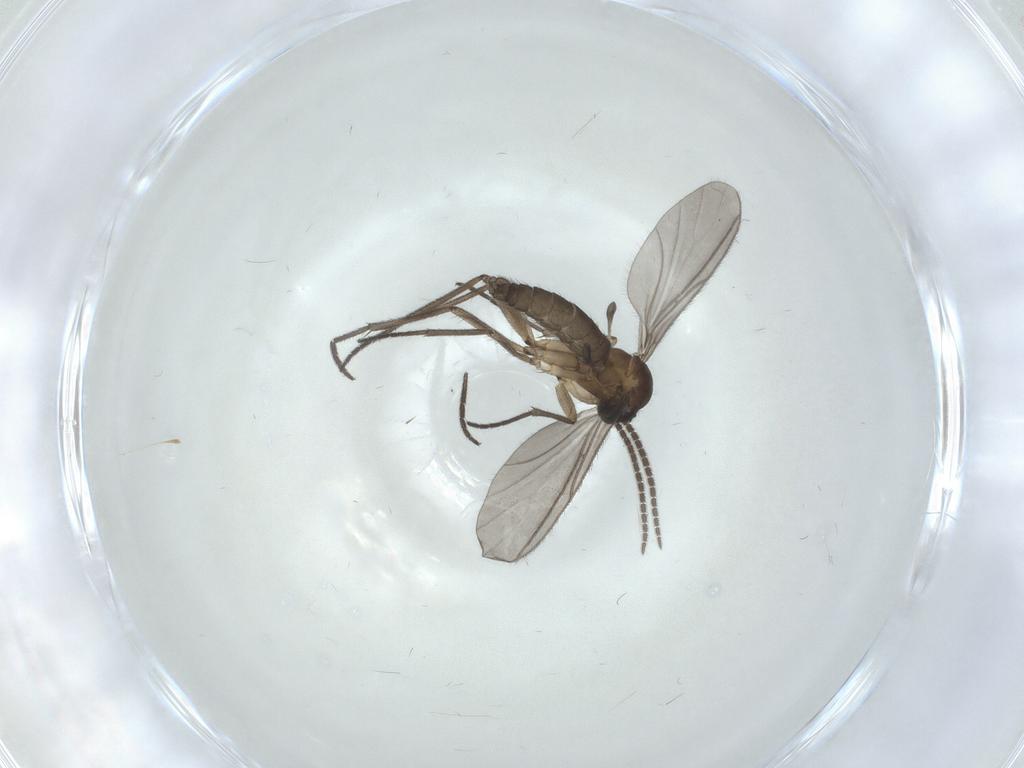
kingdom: Animalia
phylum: Arthropoda
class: Insecta
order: Diptera
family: Sciaridae
